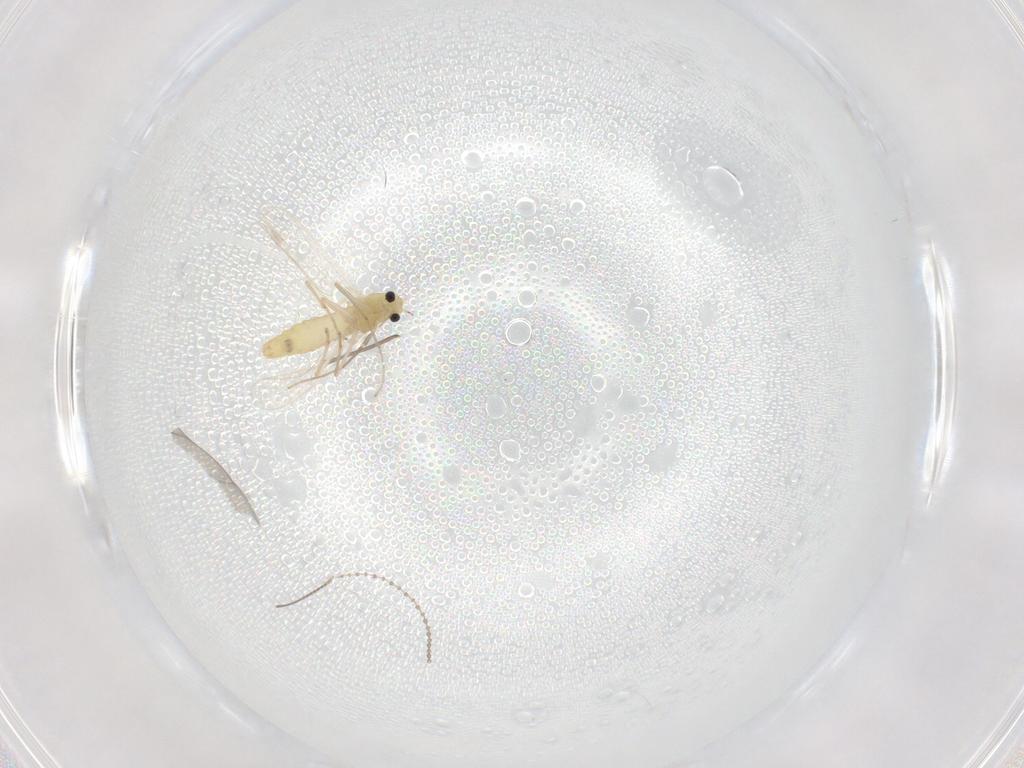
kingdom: Animalia
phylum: Arthropoda
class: Insecta
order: Diptera
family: Chironomidae
